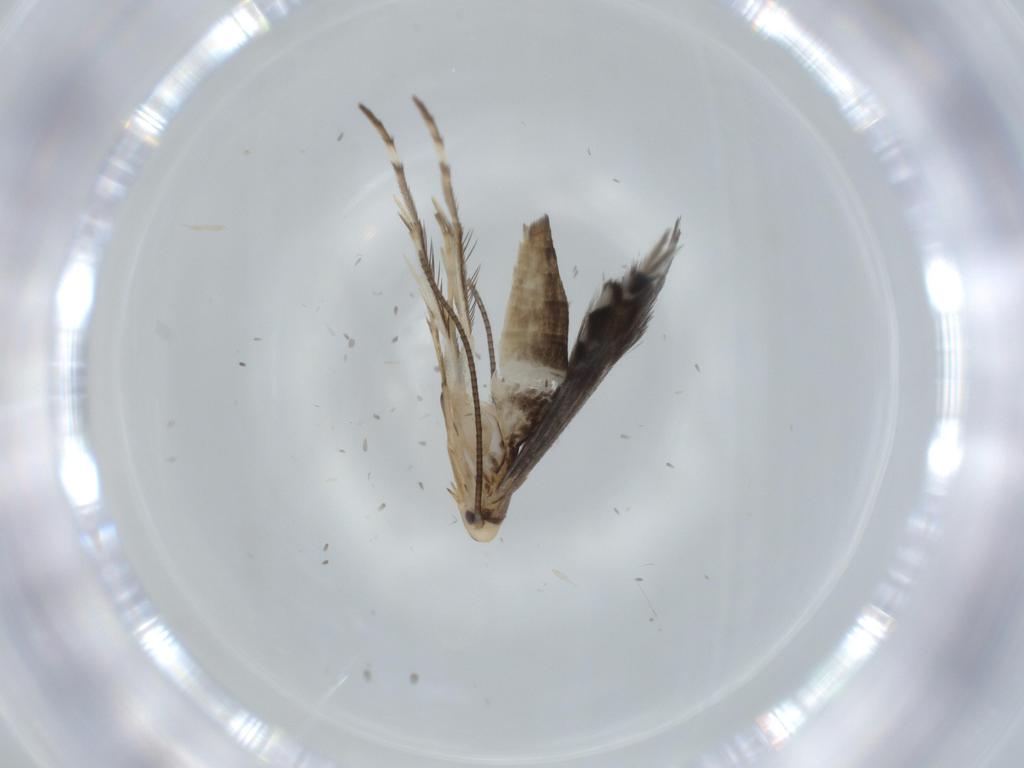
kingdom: Animalia
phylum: Arthropoda
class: Insecta
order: Lepidoptera
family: Gracillariidae
